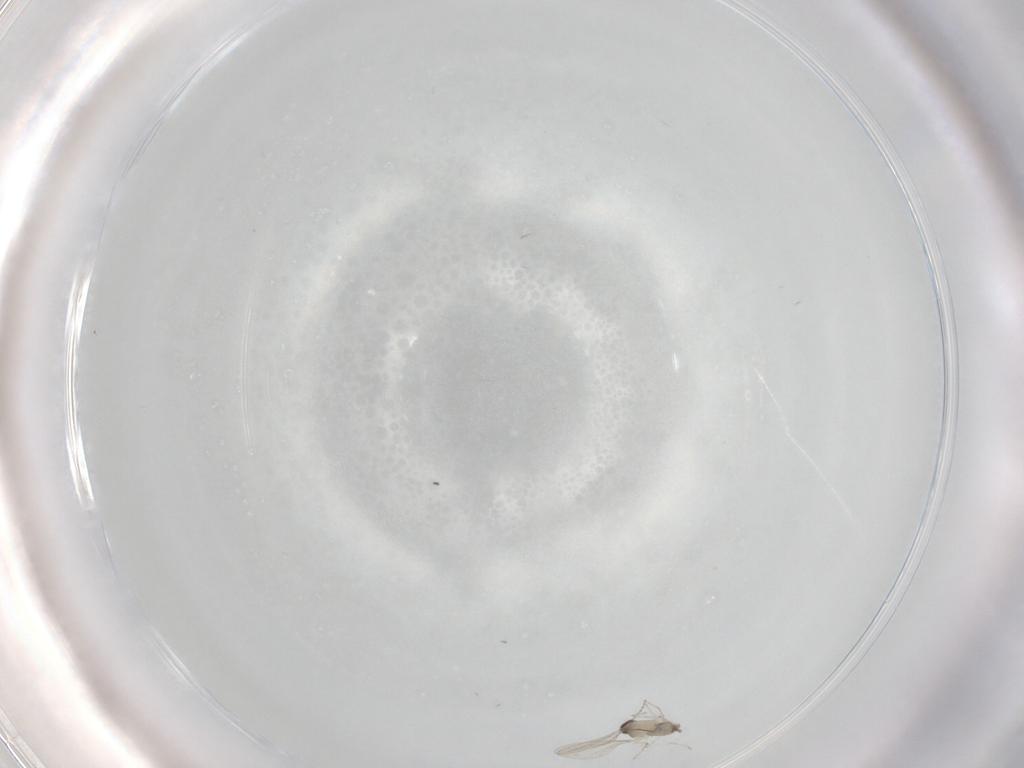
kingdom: Animalia
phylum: Arthropoda
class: Insecta
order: Diptera
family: Cecidomyiidae
